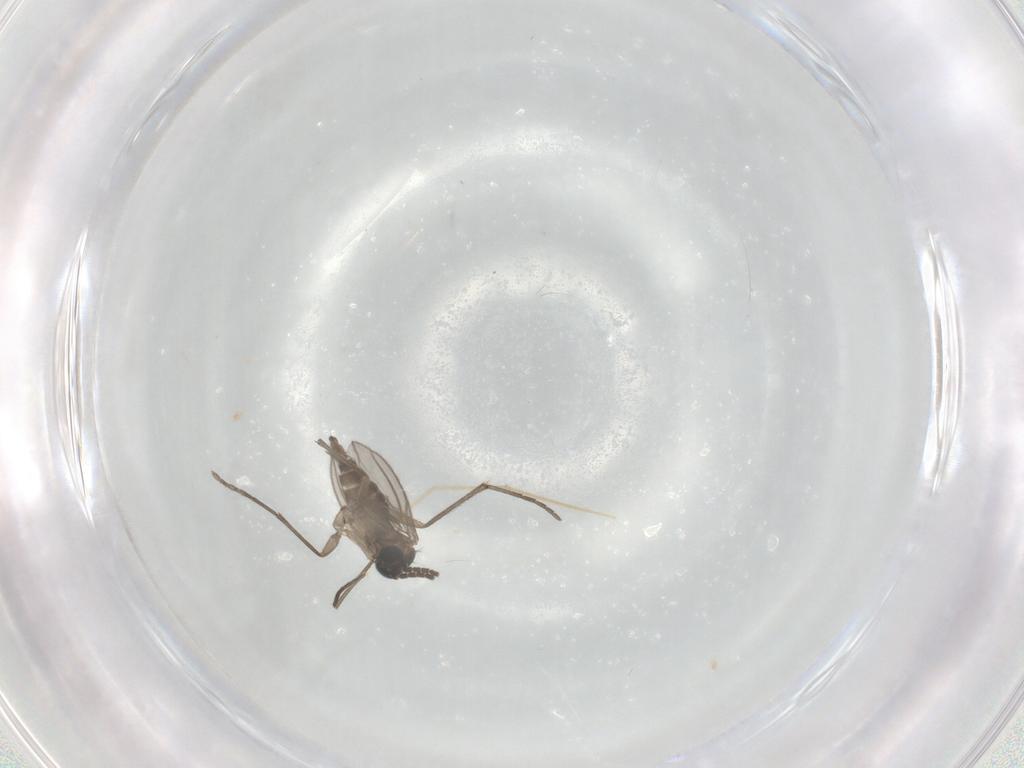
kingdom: Animalia
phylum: Arthropoda
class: Insecta
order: Diptera
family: Sciaridae
